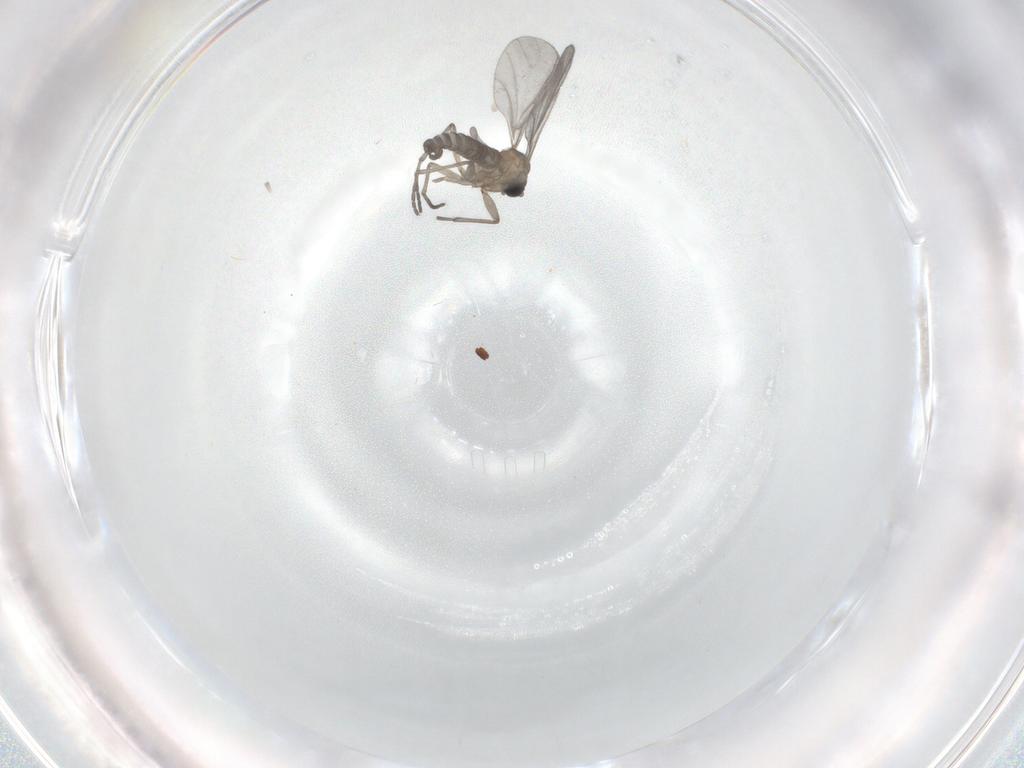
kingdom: Animalia
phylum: Arthropoda
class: Insecta
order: Diptera
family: Sciaridae
